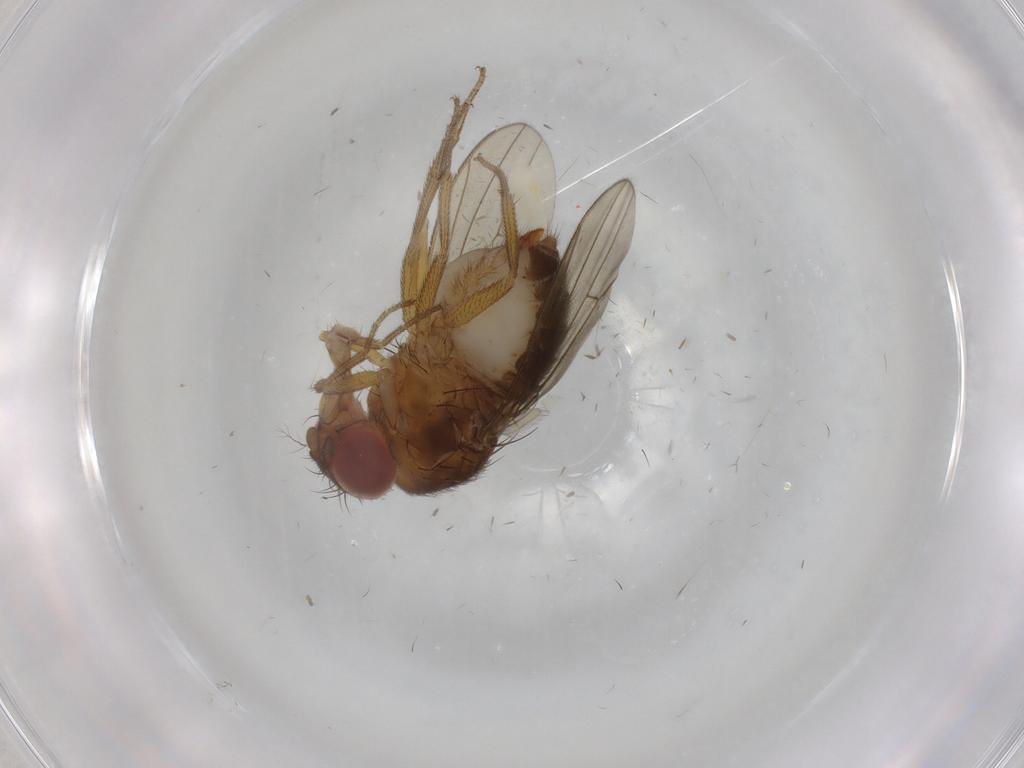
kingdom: Animalia
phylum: Arthropoda
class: Insecta
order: Diptera
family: Drosophilidae
